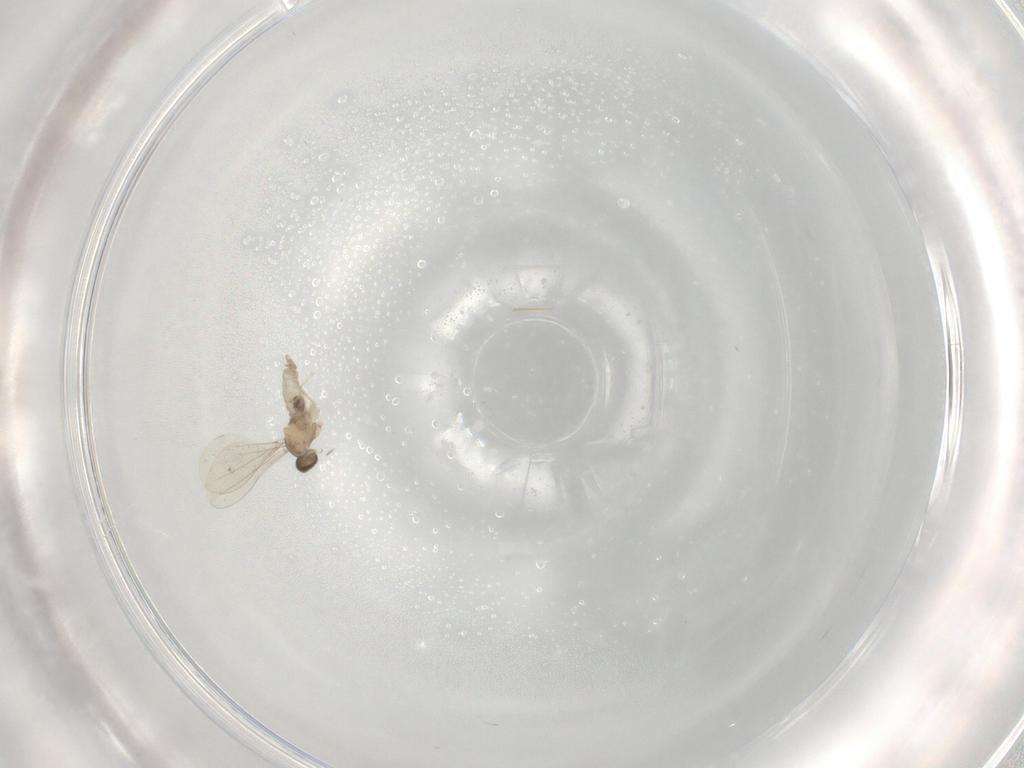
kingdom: Animalia
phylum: Arthropoda
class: Insecta
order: Diptera
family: Cecidomyiidae
